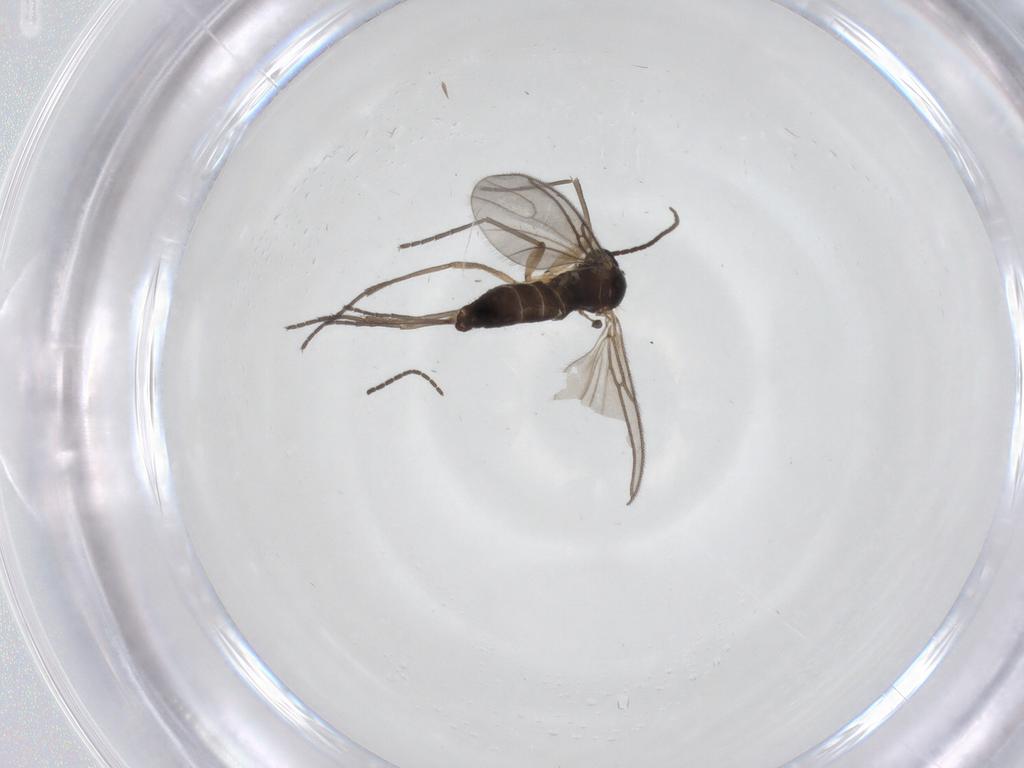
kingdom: Animalia
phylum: Arthropoda
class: Insecta
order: Diptera
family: Sciaridae
